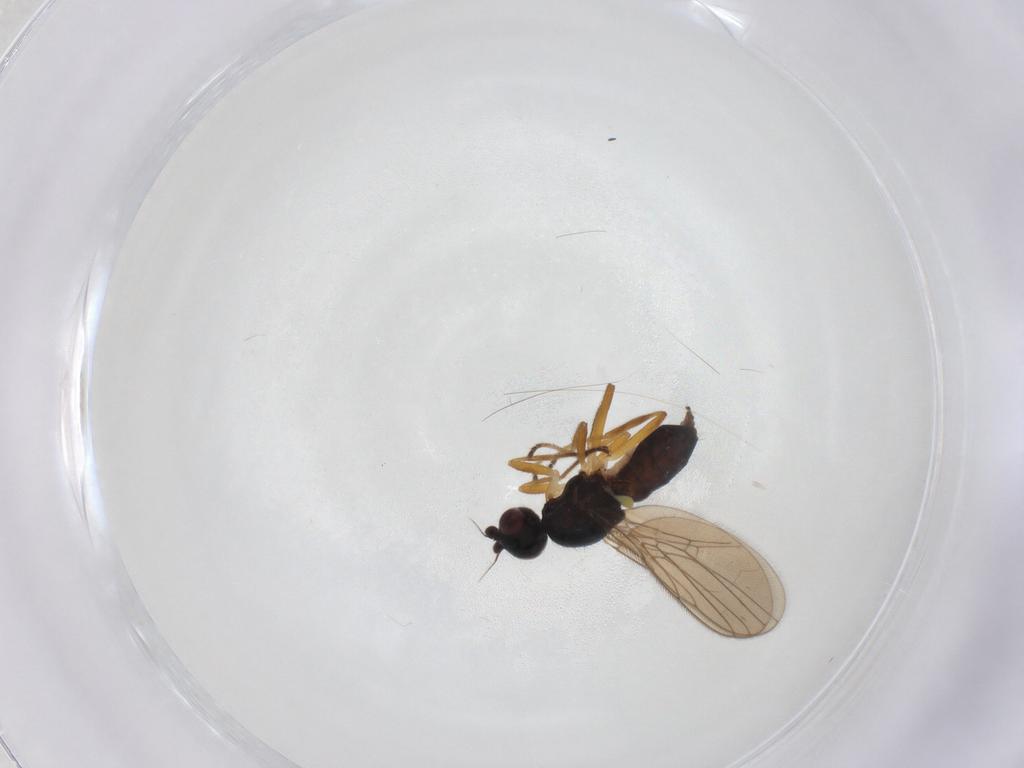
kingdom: Animalia
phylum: Arthropoda
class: Insecta
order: Diptera
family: Chloropidae
